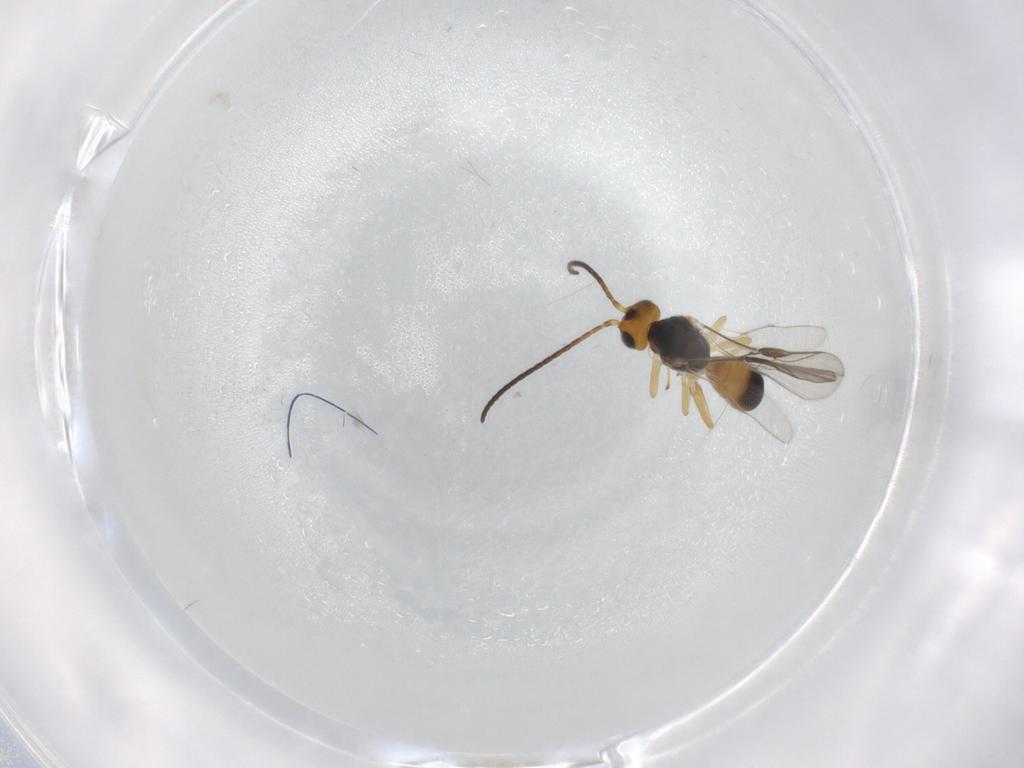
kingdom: Animalia
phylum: Arthropoda
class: Insecta
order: Hymenoptera
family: Braconidae
